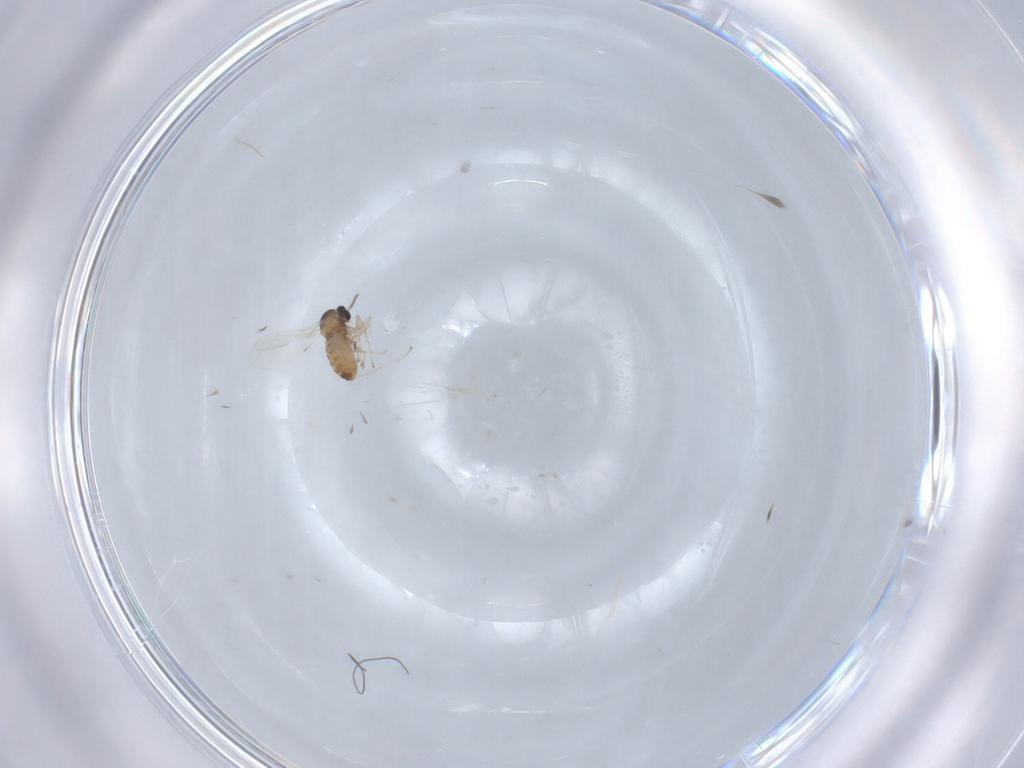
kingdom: Animalia
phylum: Arthropoda
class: Insecta
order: Diptera
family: Cecidomyiidae
